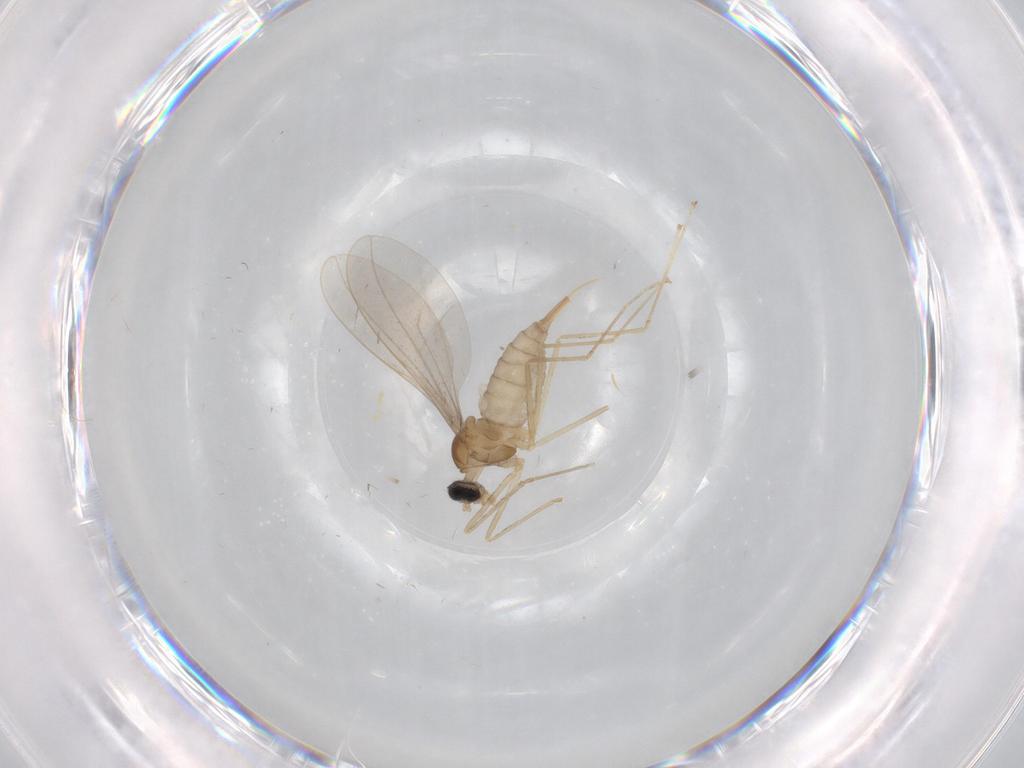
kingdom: Animalia
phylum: Arthropoda
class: Insecta
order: Diptera
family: Cecidomyiidae
